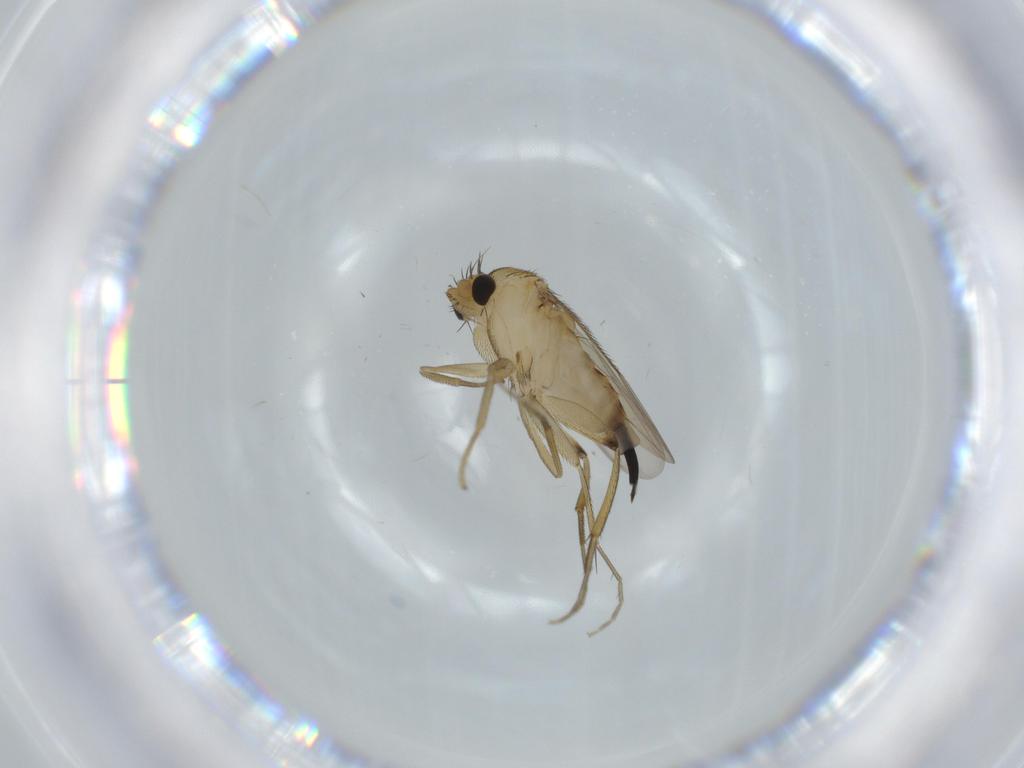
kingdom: Animalia
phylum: Arthropoda
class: Insecta
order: Diptera
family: Phoridae
